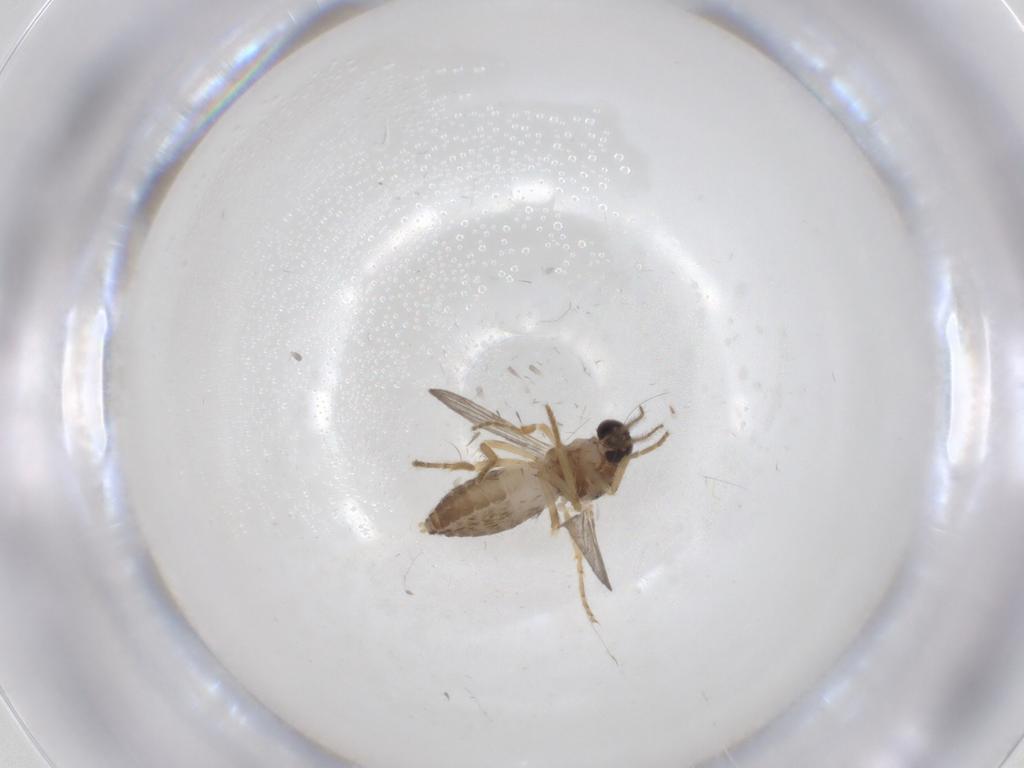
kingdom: Animalia
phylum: Arthropoda
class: Insecta
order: Diptera
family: Ceratopogonidae
